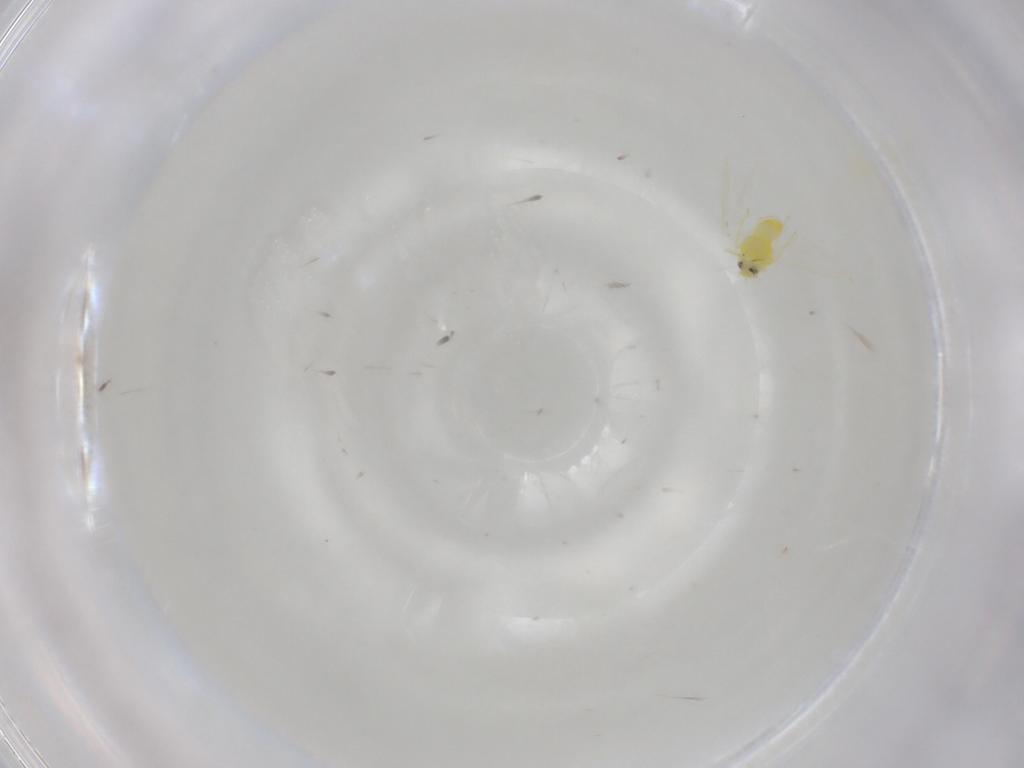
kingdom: Animalia
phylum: Arthropoda
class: Insecta
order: Hemiptera
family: Aleyrodidae
